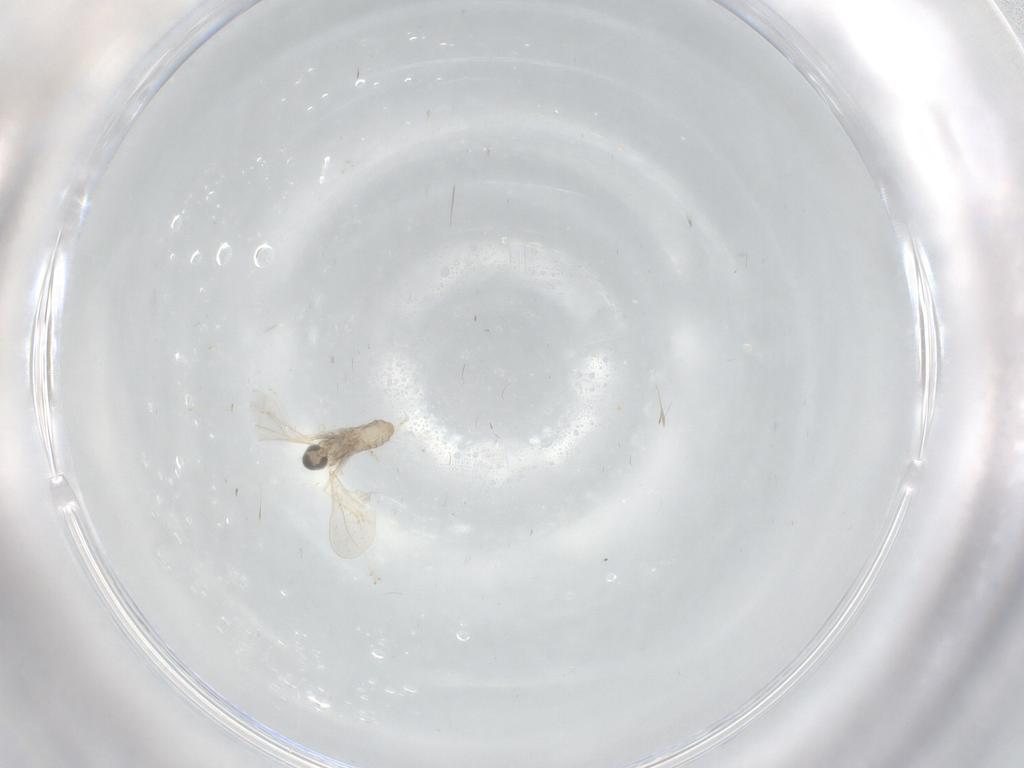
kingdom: Animalia
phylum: Arthropoda
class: Insecta
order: Diptera
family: Cecidomyiidae
